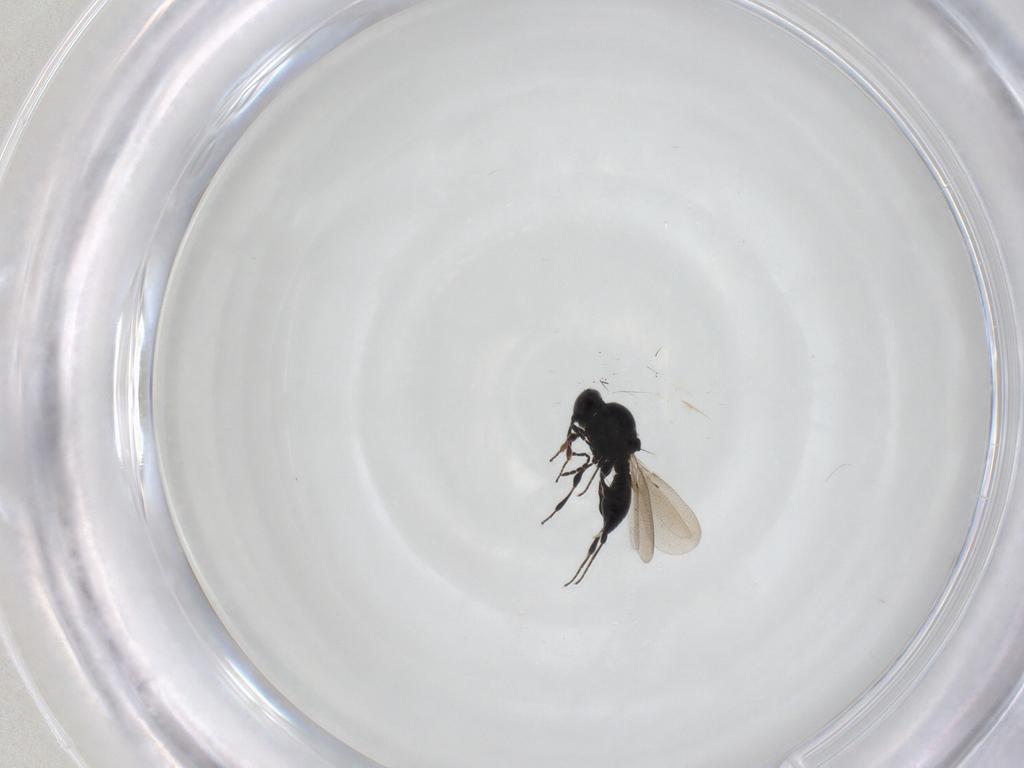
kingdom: Animalia
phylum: Arthropoda
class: Insecta
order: Hymenoptera
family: Platygastridae
